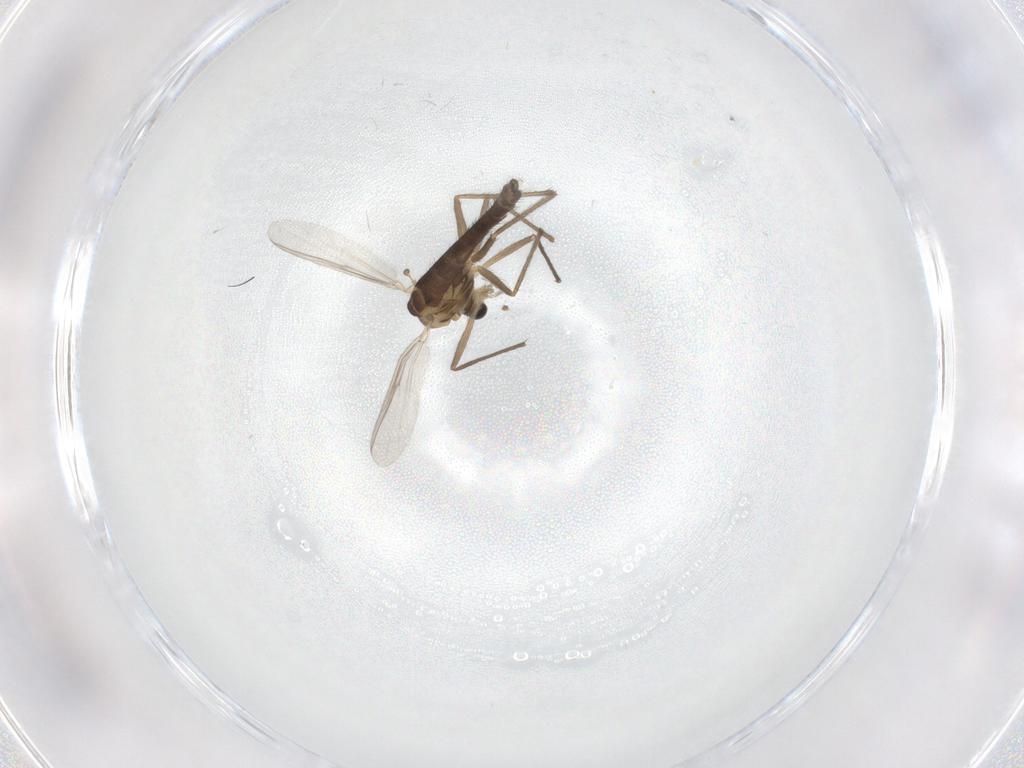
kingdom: Animalia
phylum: Arthropoda
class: Insecta
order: Diptera
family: Chironomidae
